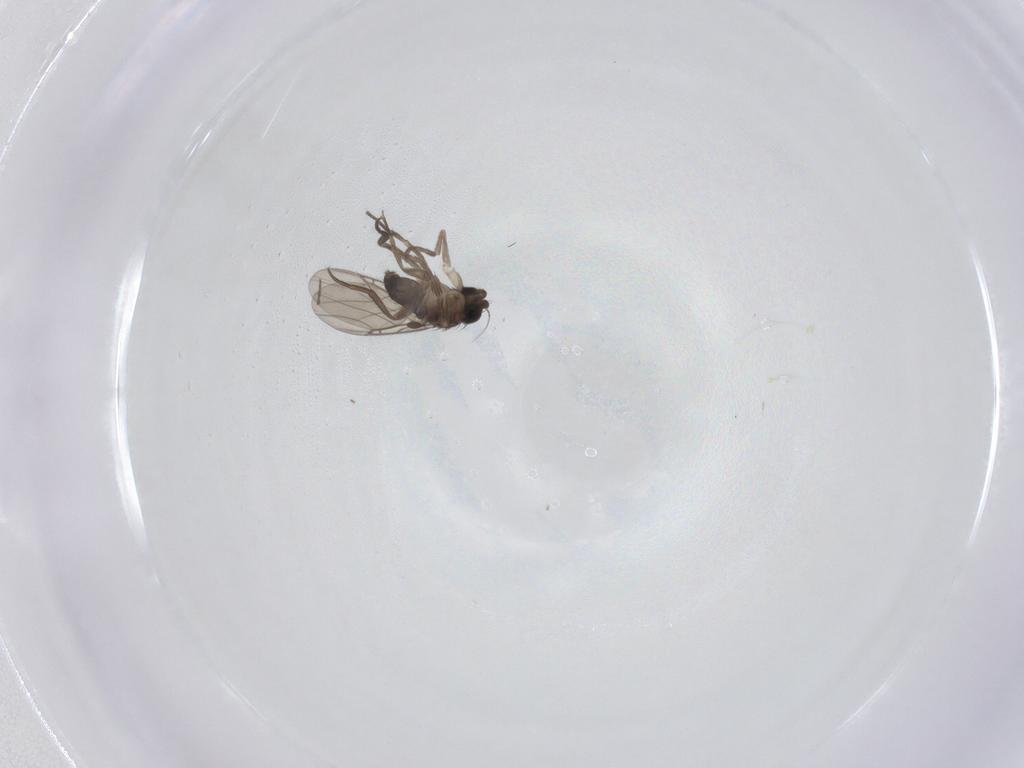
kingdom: Animalia
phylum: Arthropoda
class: Insecta
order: Diptera
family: Phoridae
